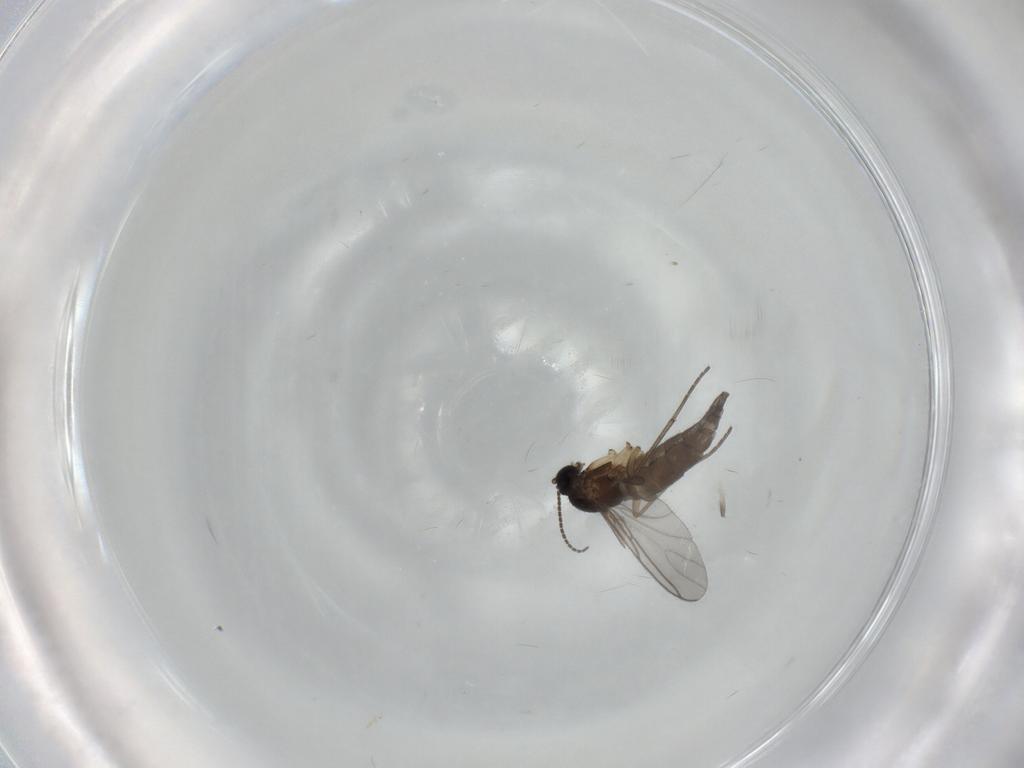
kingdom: Animalia
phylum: Arthropoda
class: Insecta
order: Diptera
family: Sciaridae
